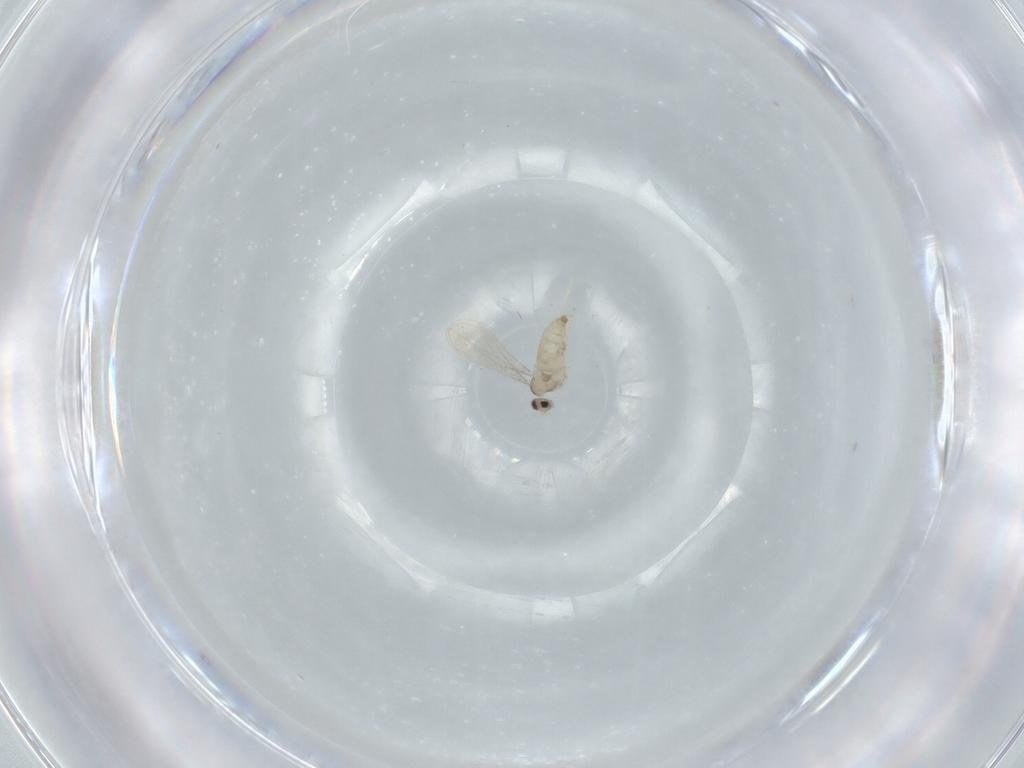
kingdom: Animalia
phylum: Arthropoda
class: Insecta
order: Diptera
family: Cecidomyiidae
